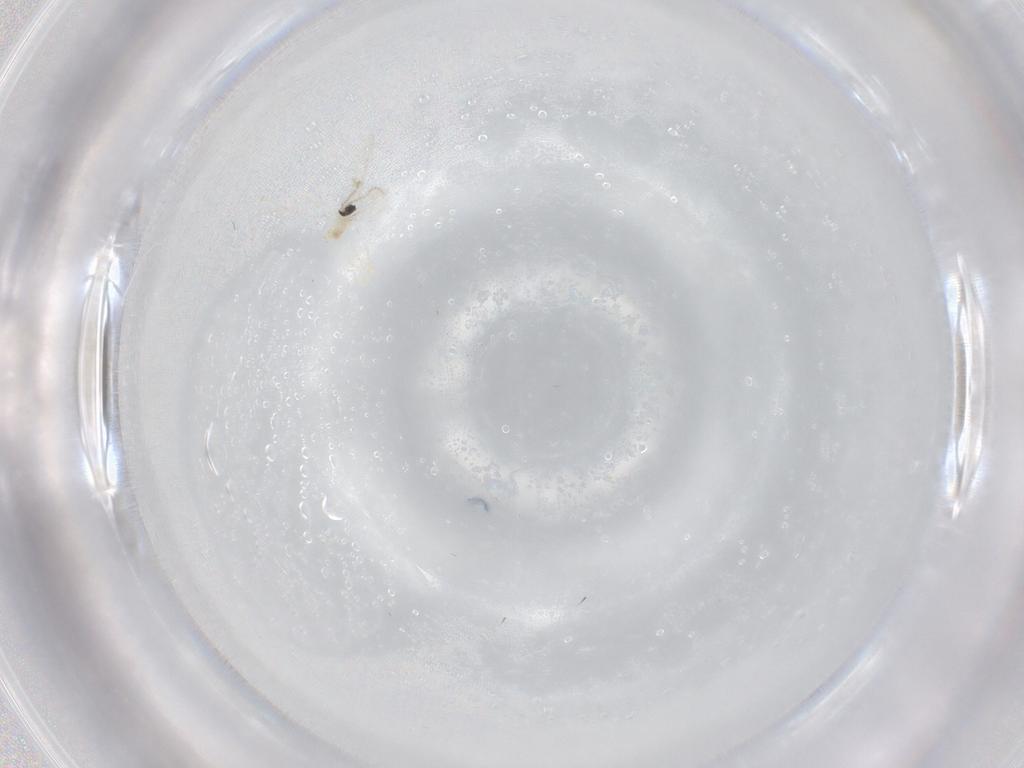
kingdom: Animalia
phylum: Arthropoda
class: Insecta
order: Diptera
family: Cecidomyiidae
